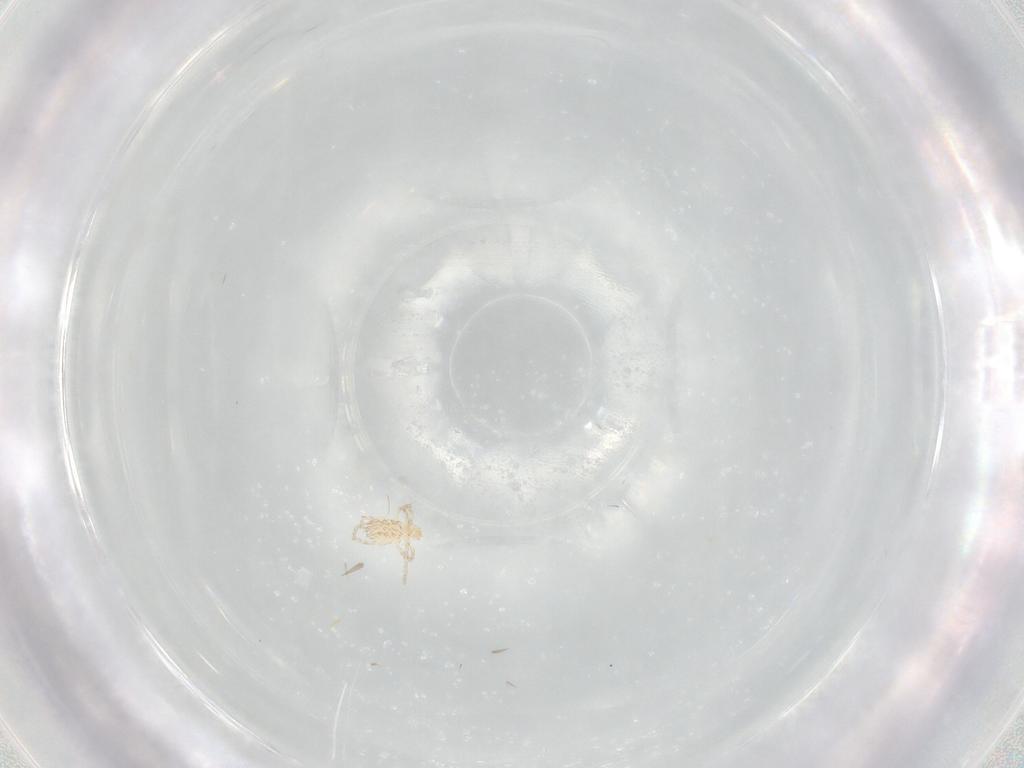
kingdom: Animalia
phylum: Arthropoda
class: Arachnida
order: Trombidiformes
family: Erythraeidae
